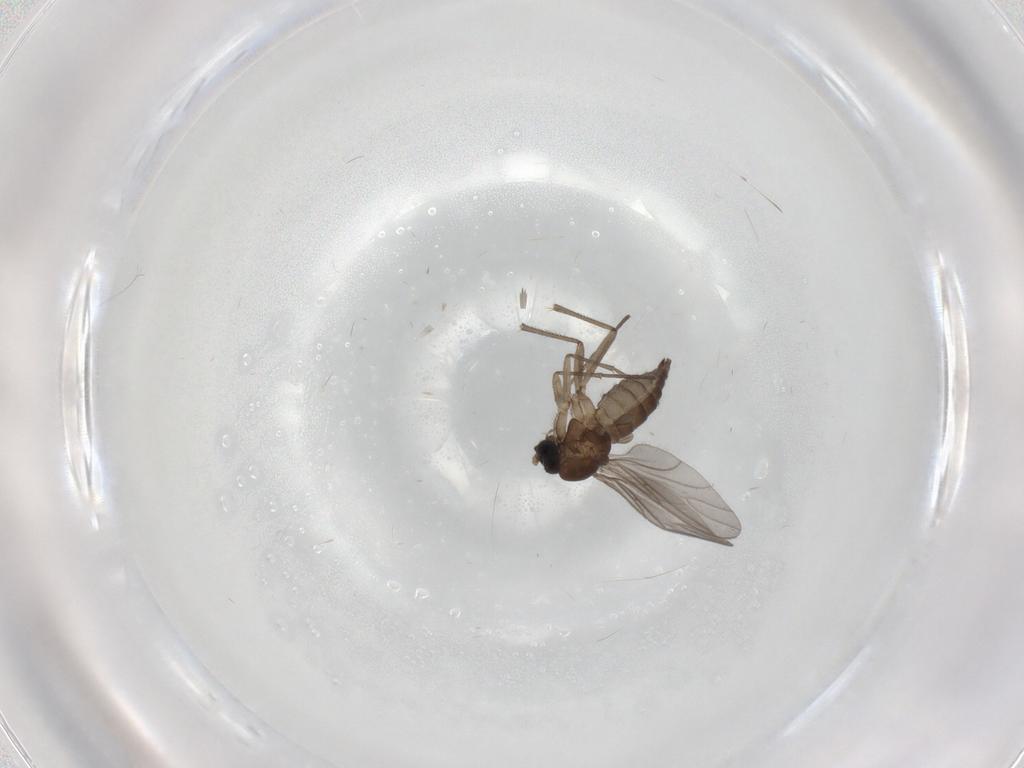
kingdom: Animalia
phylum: Arthropoda
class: Insecta
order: Diptera
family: Sciaridae
